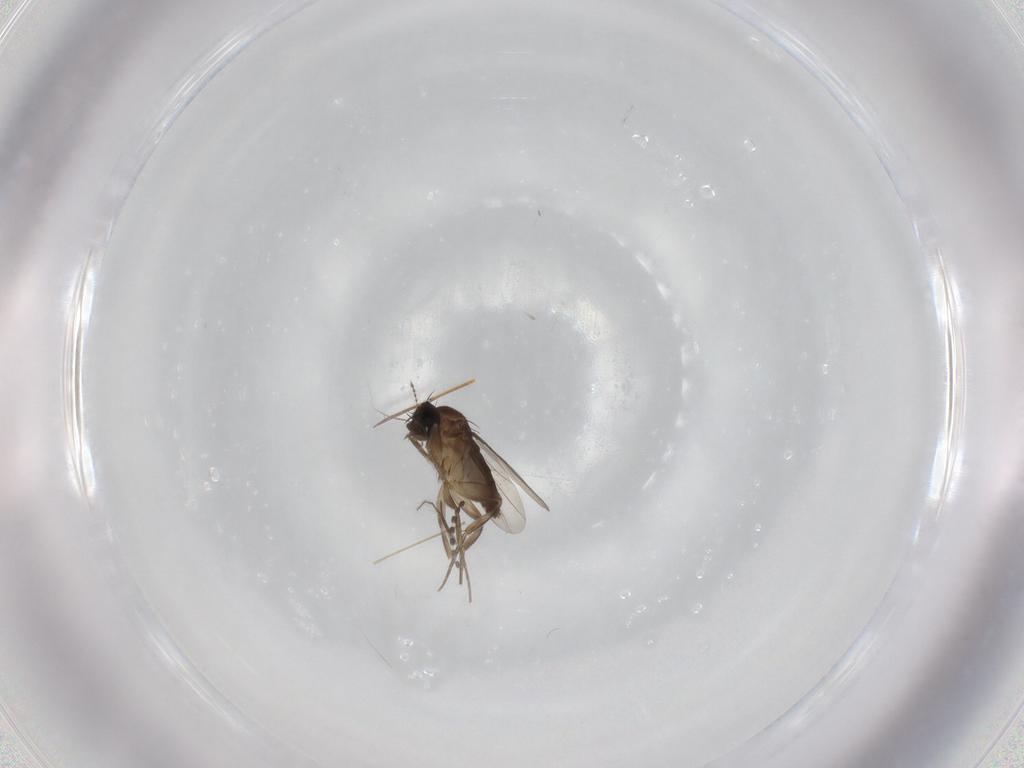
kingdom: Animalia
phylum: Arthropoda
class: Insecta
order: Diptera
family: Phoridae
